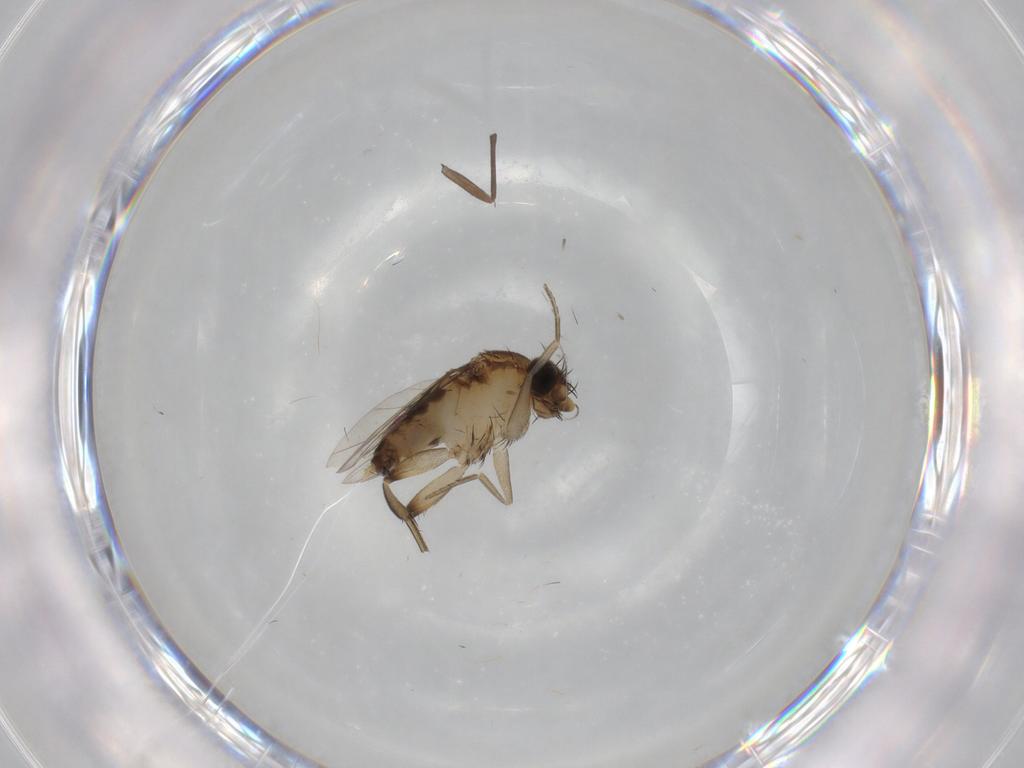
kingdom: Animalia
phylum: Arthropoda
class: Insecta
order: Diptera
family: Phoridae
